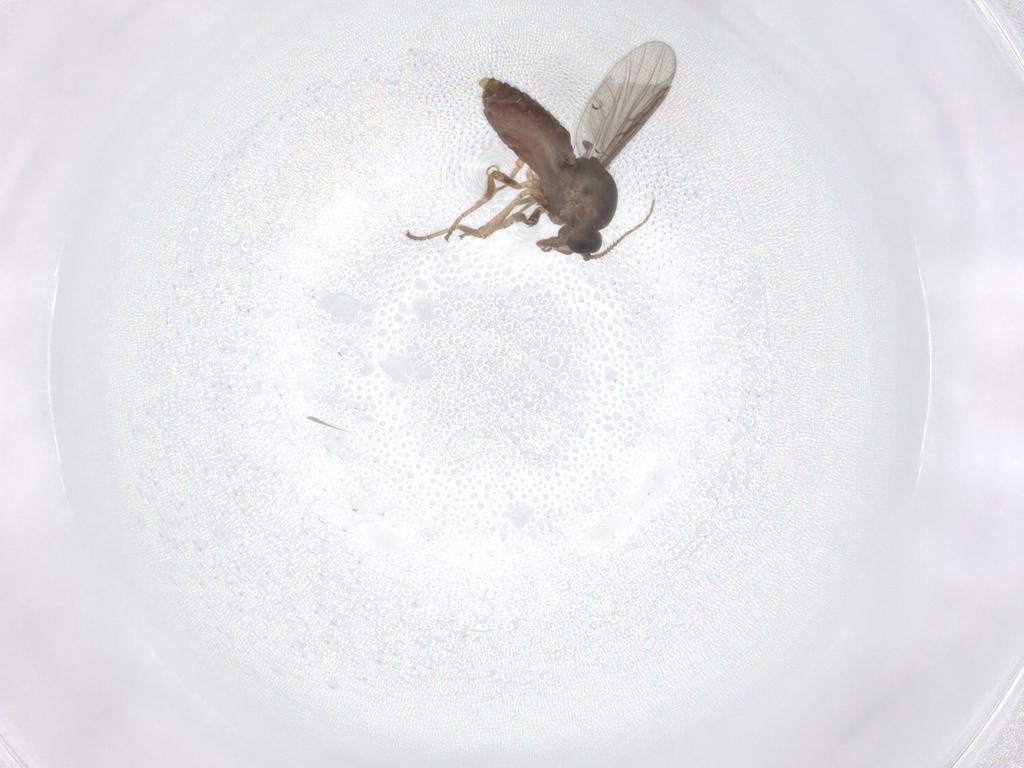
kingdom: Animalia
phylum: Arthropoda
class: Insecta
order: Diptera
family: Ceratopogonidae
